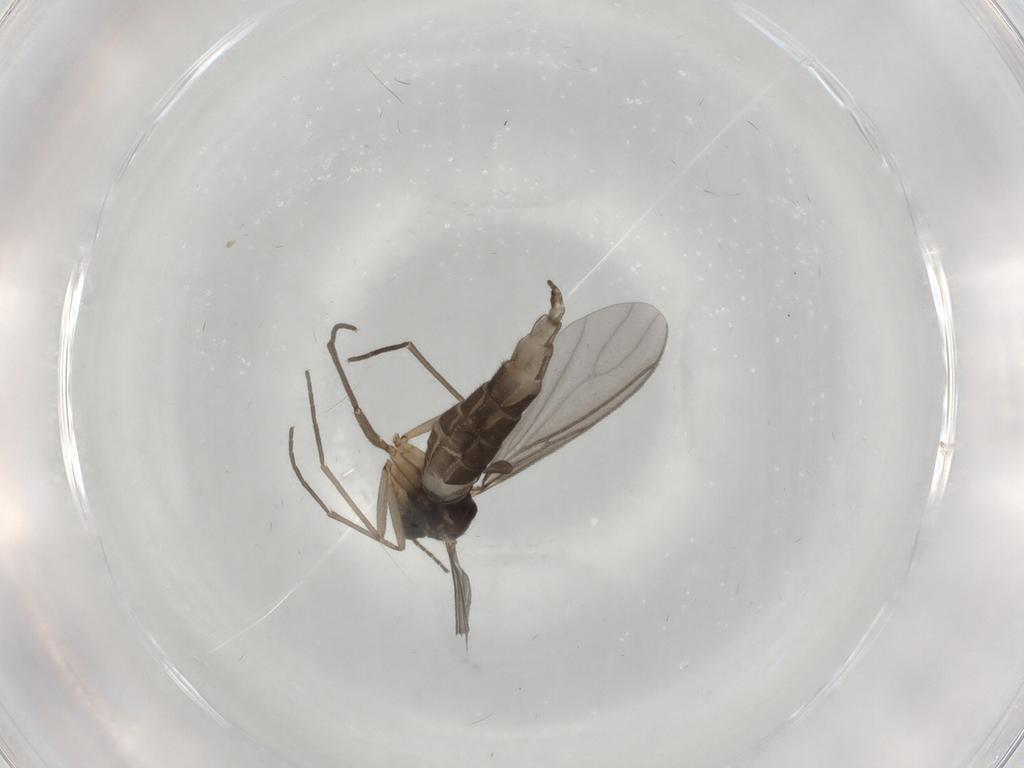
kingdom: Animalia
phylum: Arthropoda
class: Insecta
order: Diptera
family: Sciaridae
